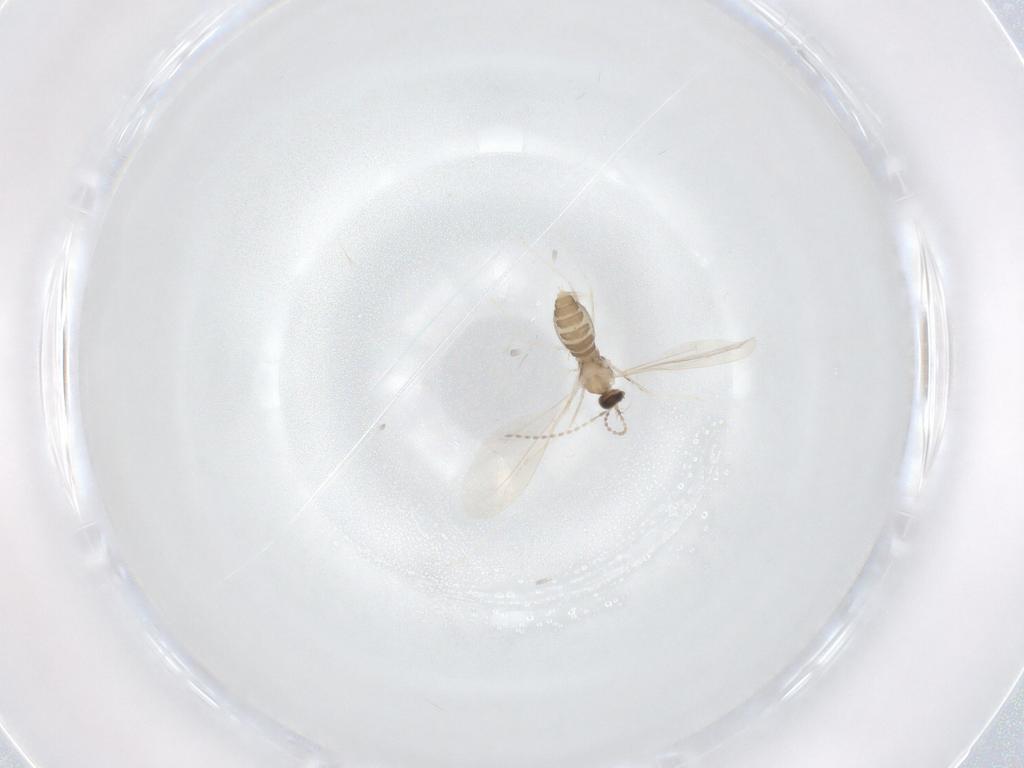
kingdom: Animalia
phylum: Arthropoda
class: Insecta
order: Diptera
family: Cecidomyiidae
